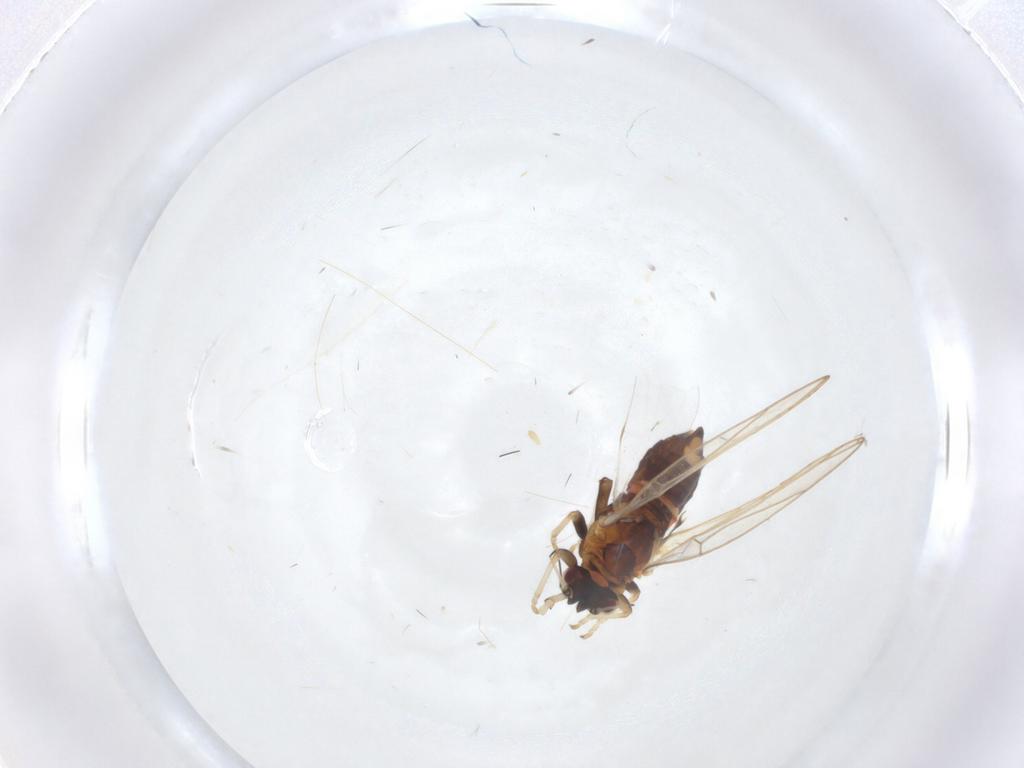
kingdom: Animalia
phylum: Arthropoda
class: Insecta
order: Hemiptera
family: Triozidae
